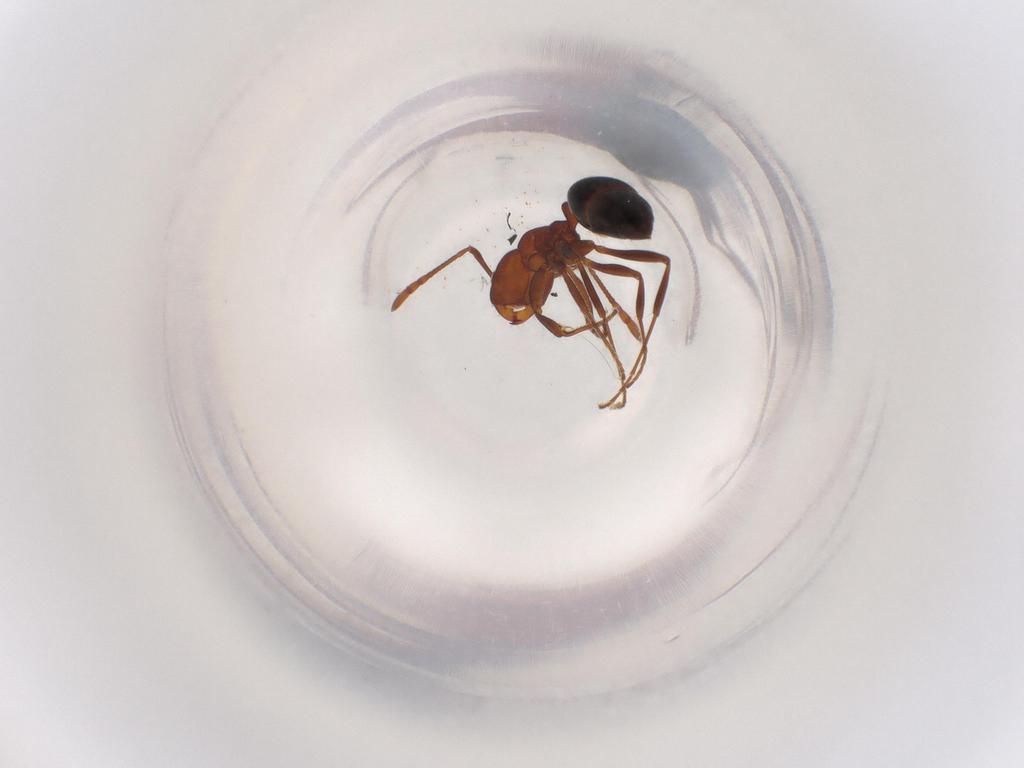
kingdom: Animalia
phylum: Arthropoda
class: Insecta
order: Hymenoptera
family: Formicidae
